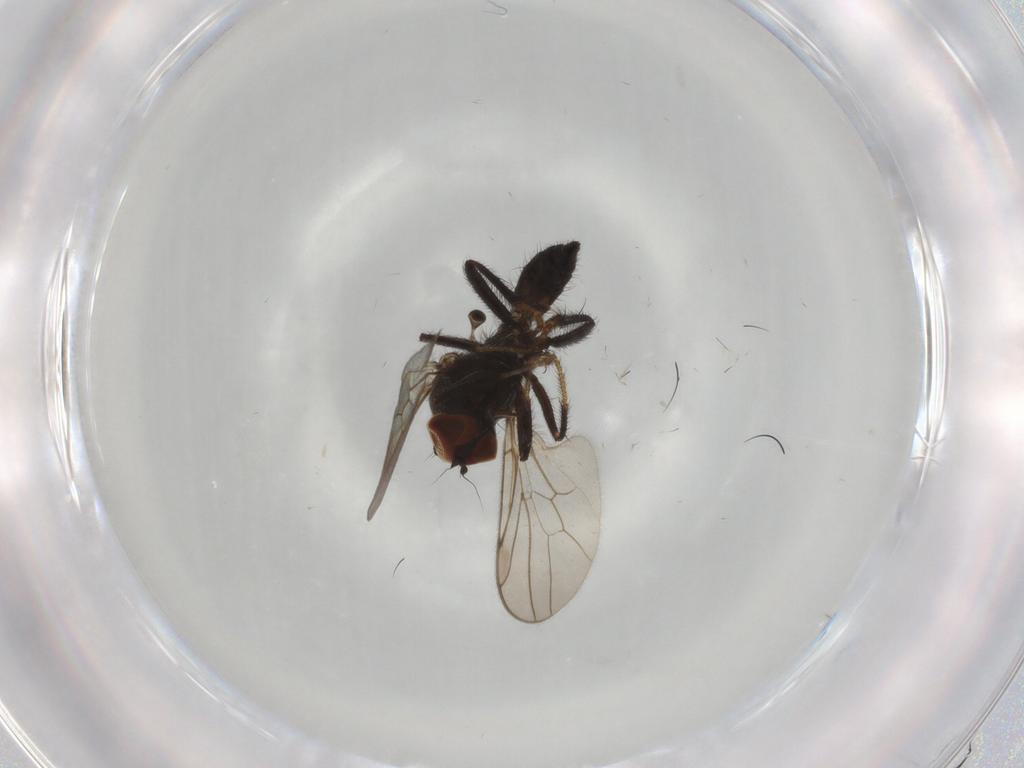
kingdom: Animalia
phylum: Arthropoda
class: Insecta
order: Diptera
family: Hybotidae
